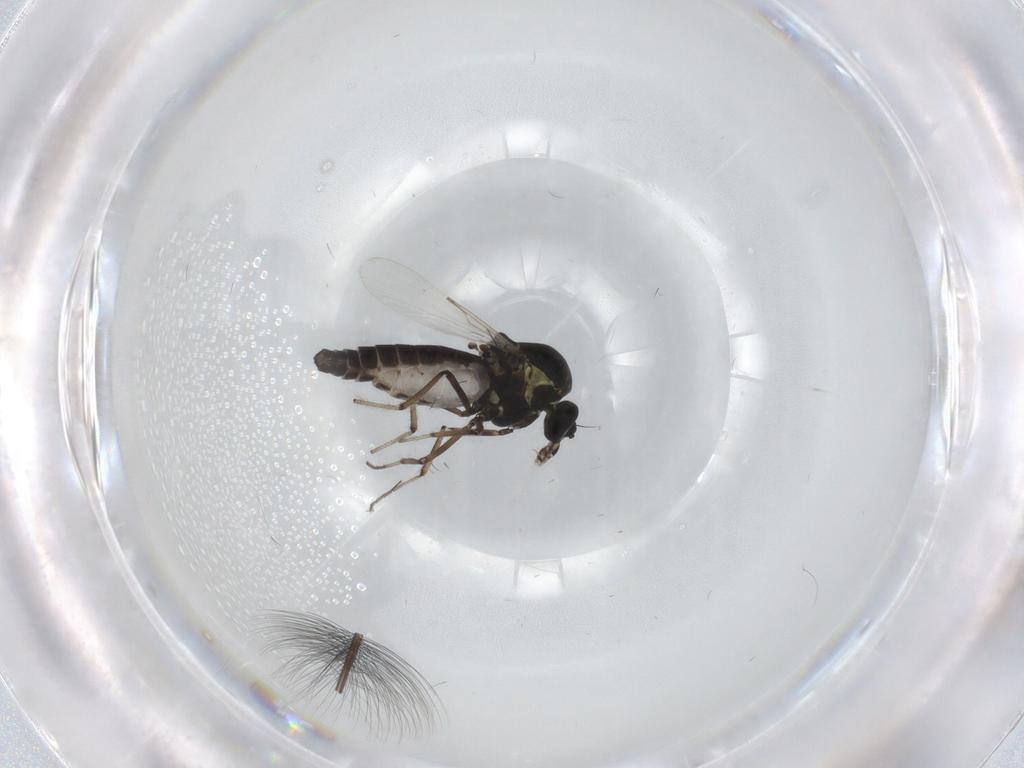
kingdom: Animalia
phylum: Arthropoda
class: Insecta
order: Diptera
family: Ceratopogonidae
